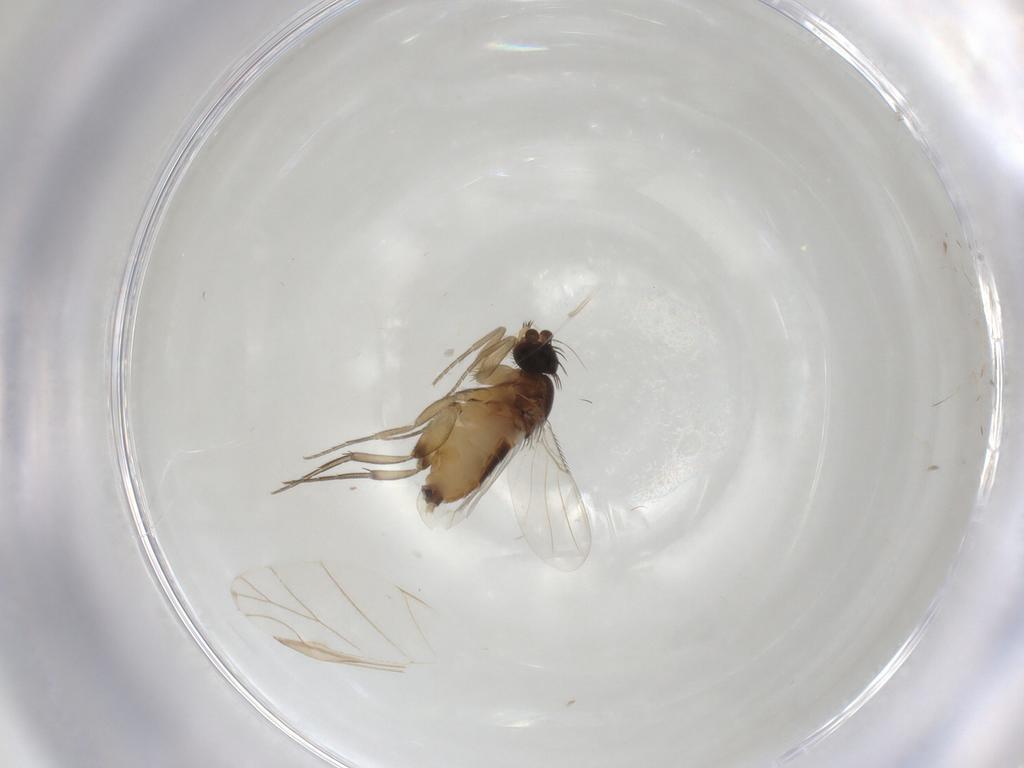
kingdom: Animalia
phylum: Arthropoda
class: Insecta
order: Diptera
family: Phoridae
